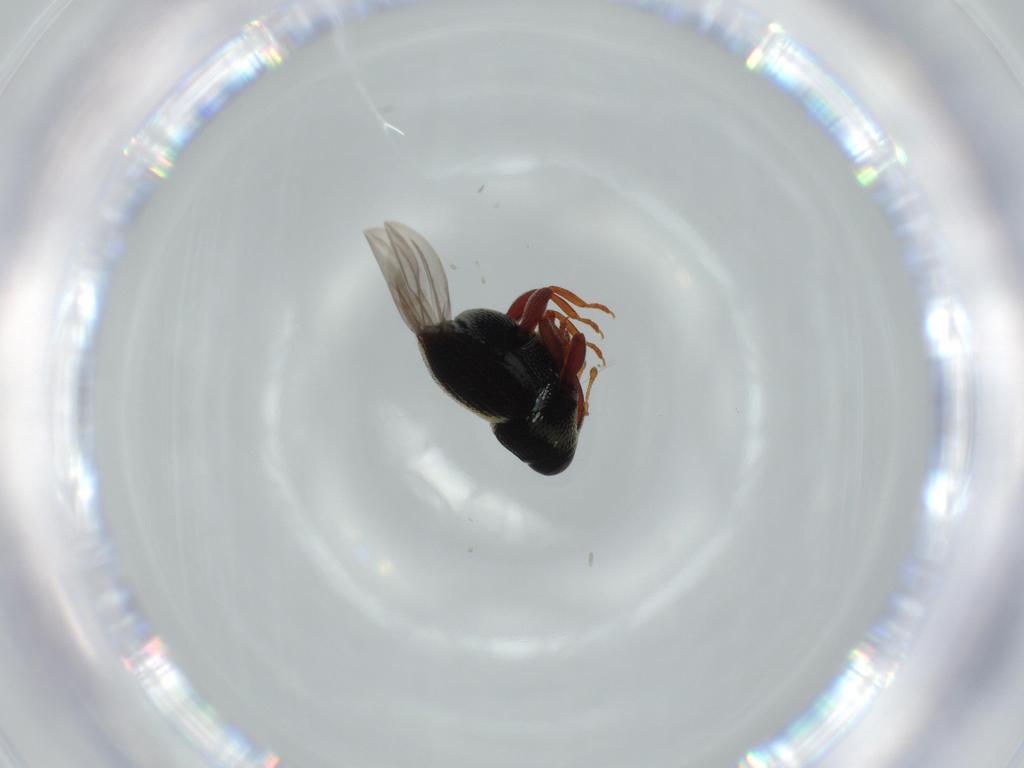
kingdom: Animalia
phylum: Arthropoda
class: Insecta
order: Coleoptera
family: Curculionidae
